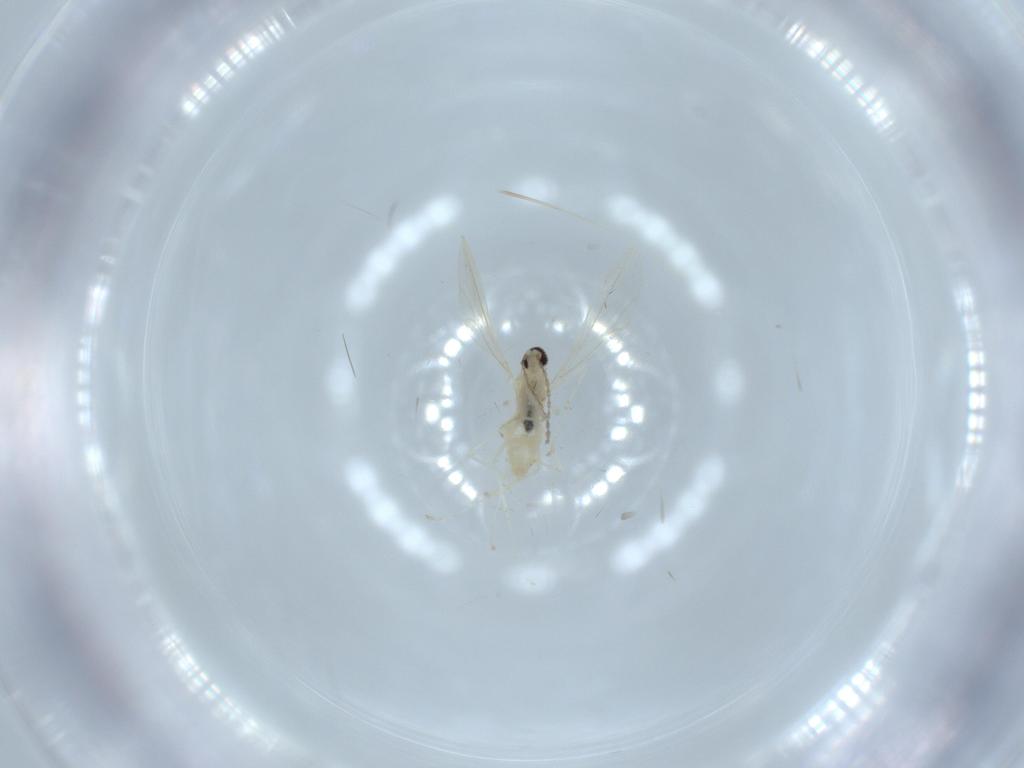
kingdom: Animalia
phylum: Arthropoda
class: Insecta
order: Diptera
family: Cecidomyiidae
